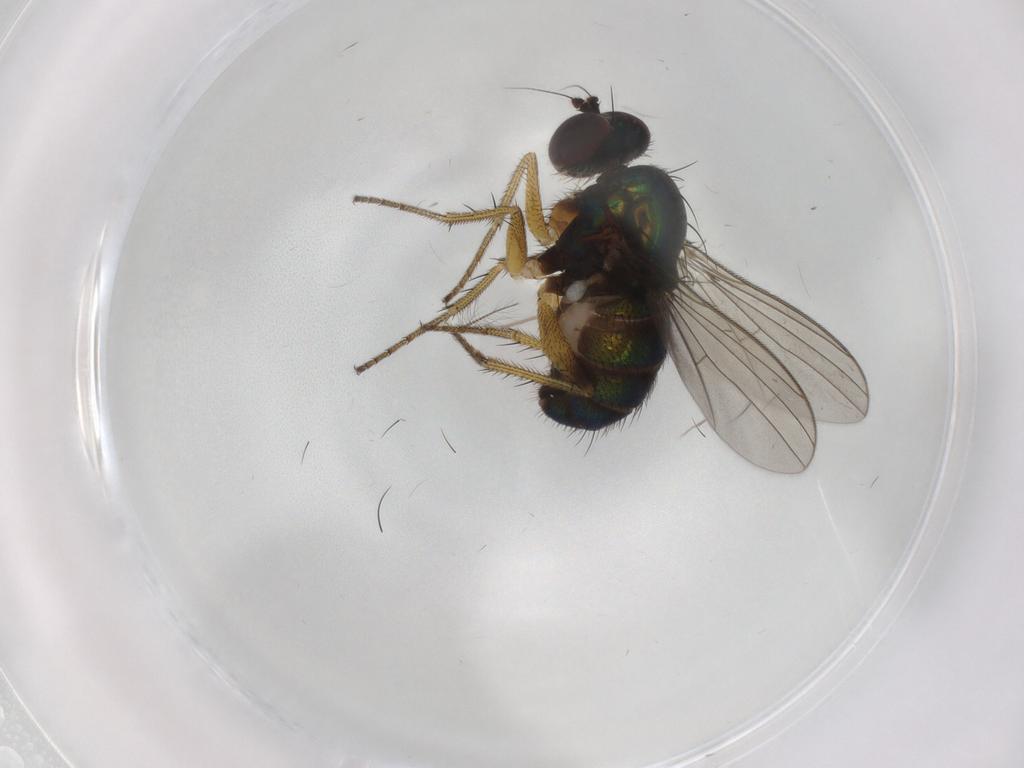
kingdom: Animalia
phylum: Arthropoda
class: Insecta
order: Diptera
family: Dolichopodidae
